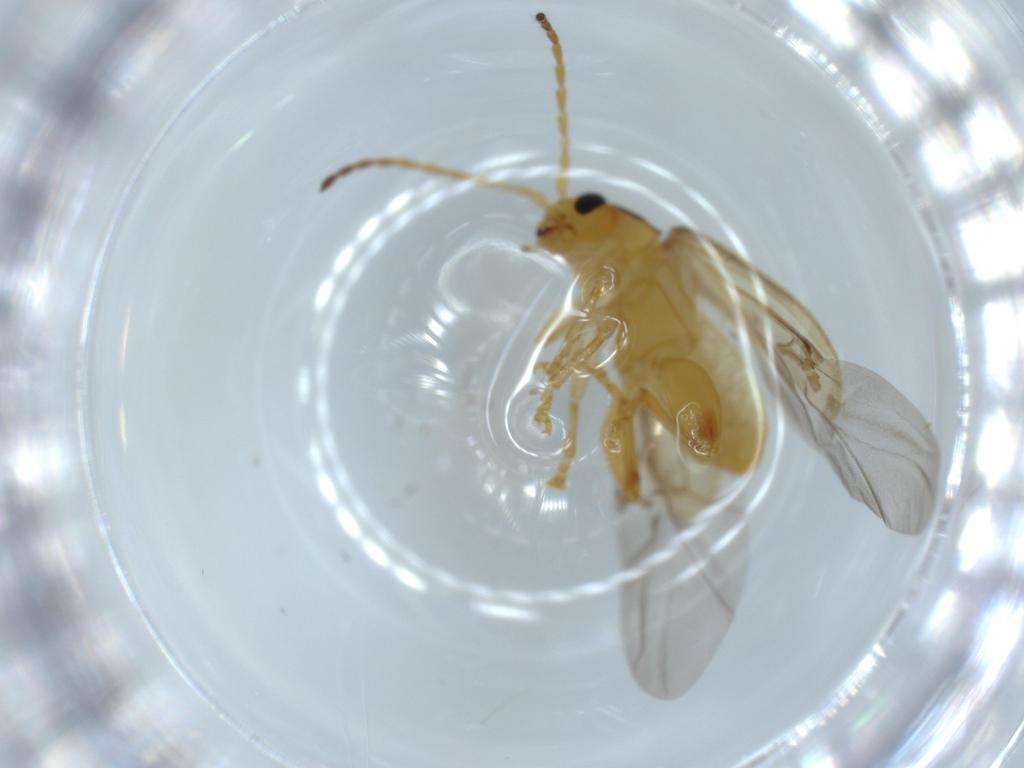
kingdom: Animalia
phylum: Arthropoda
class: Insecta
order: Coleoptera
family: Chrysomelidae
